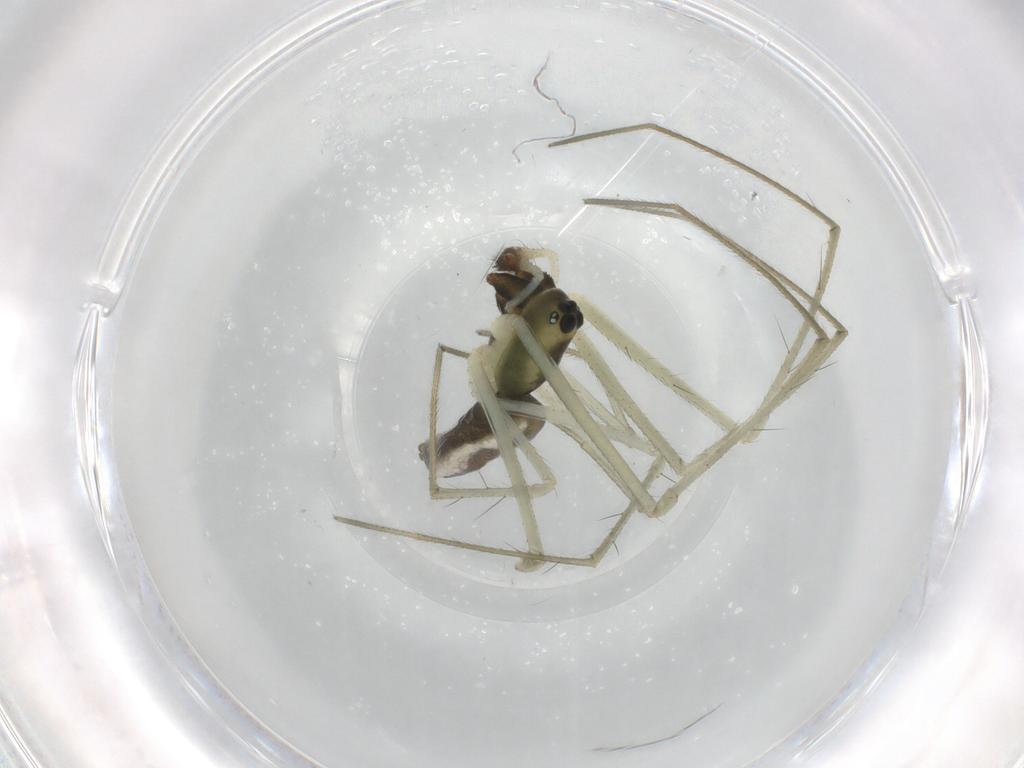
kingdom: Animalia
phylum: Arthropoda
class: Arachnida
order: Araneae
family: Linyphiidae
